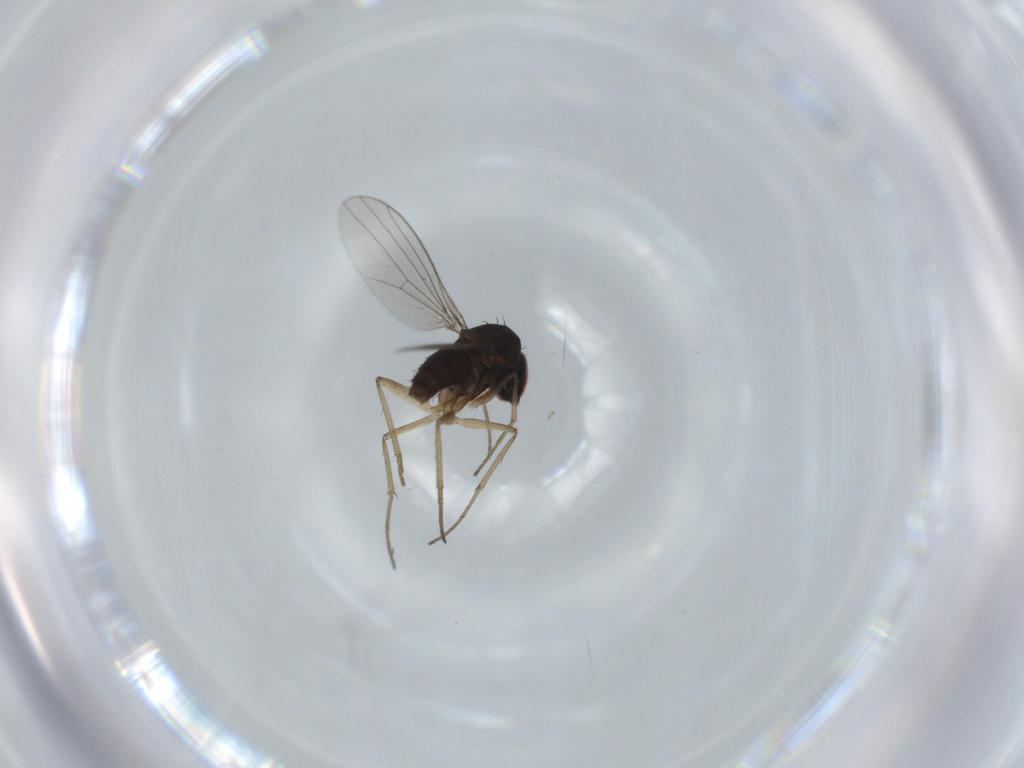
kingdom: Animalia
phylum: Arthropoda
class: Insecta
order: Diptera
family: Dolichopodidae
